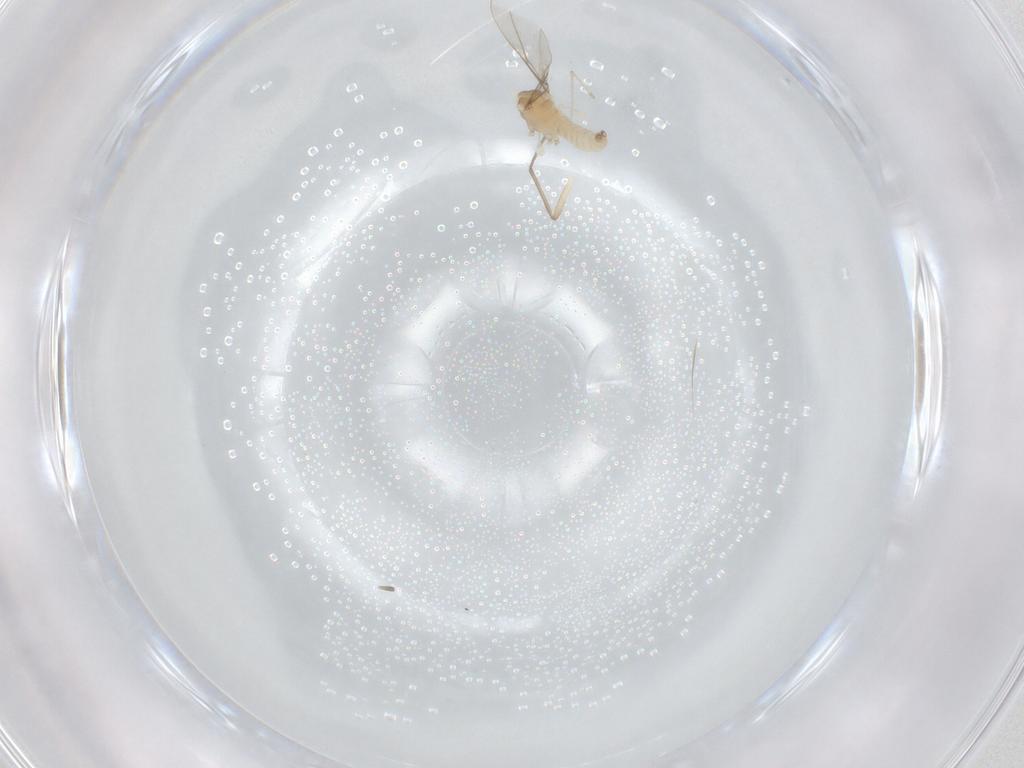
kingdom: Animalia
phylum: Arthropoda
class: Insecta
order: Diptera
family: Chironomidae
